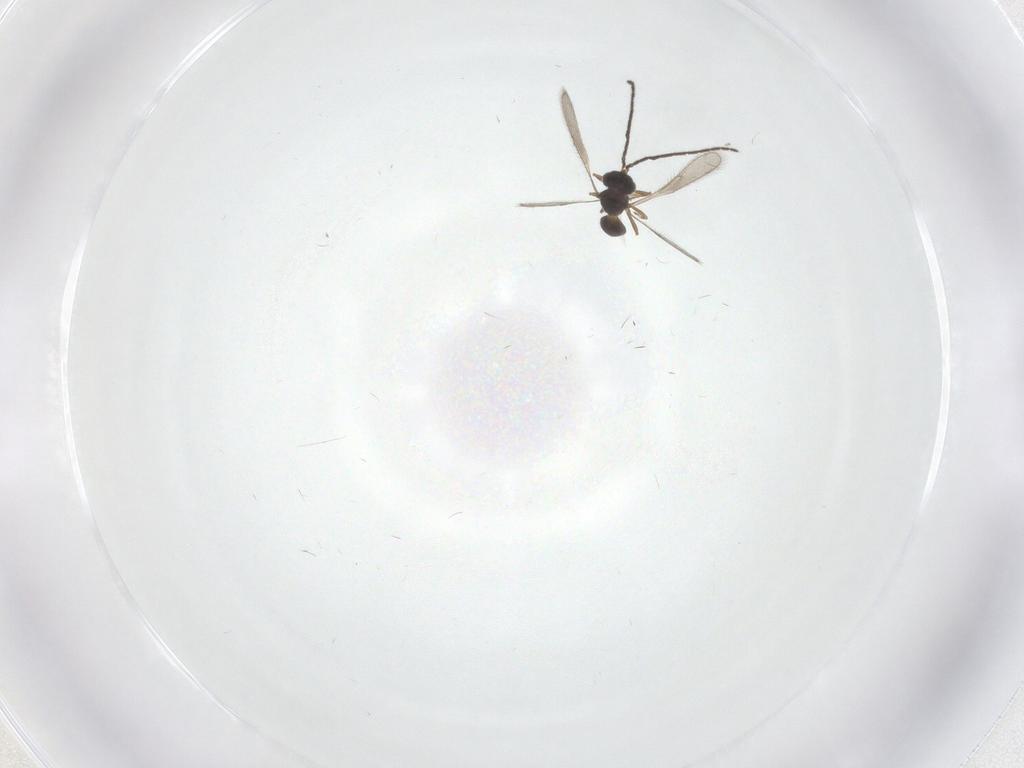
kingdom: Animalia
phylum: Arthropoda
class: Insecta
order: Hymenoptera
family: Scelionidae
